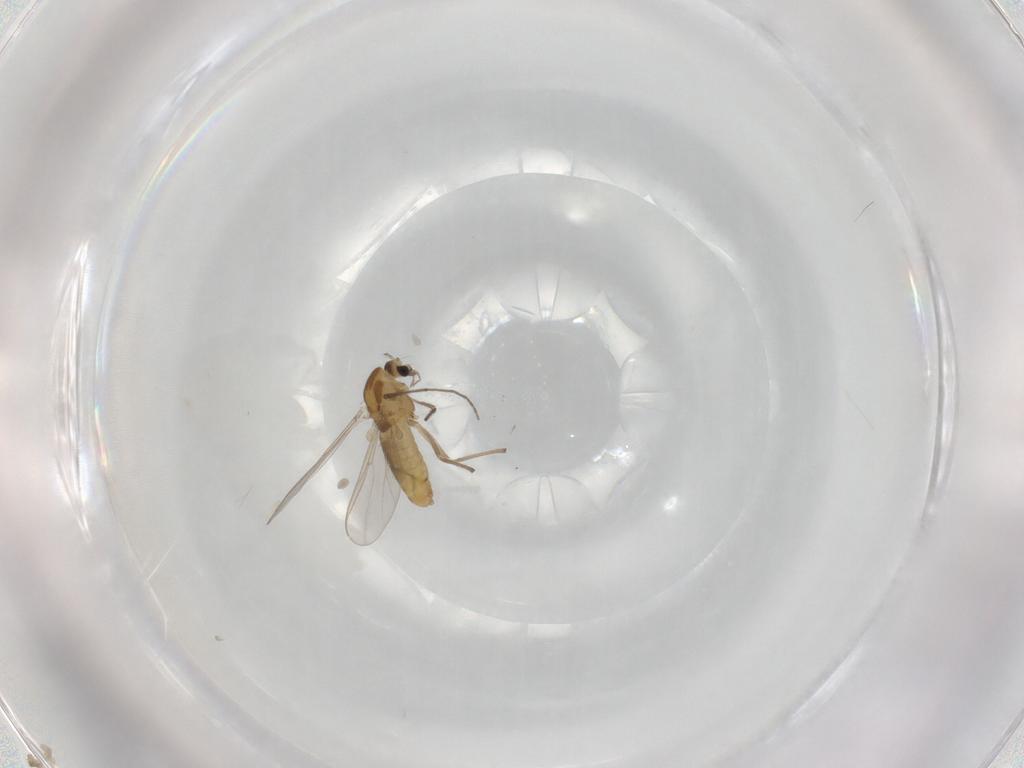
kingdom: Animalia
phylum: Arthropoda
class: Insecta
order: Diptera
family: Chironomidae
